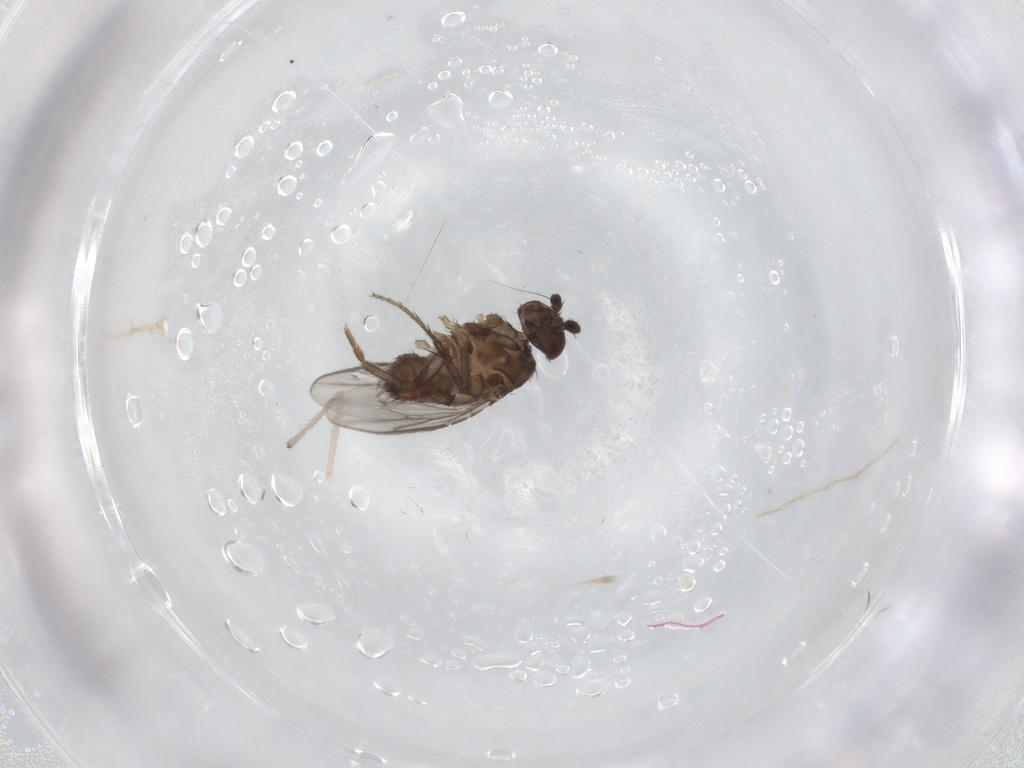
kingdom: Animalia
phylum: Arthropoda
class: Insecta
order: Diptera
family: Sphaeroceridae
